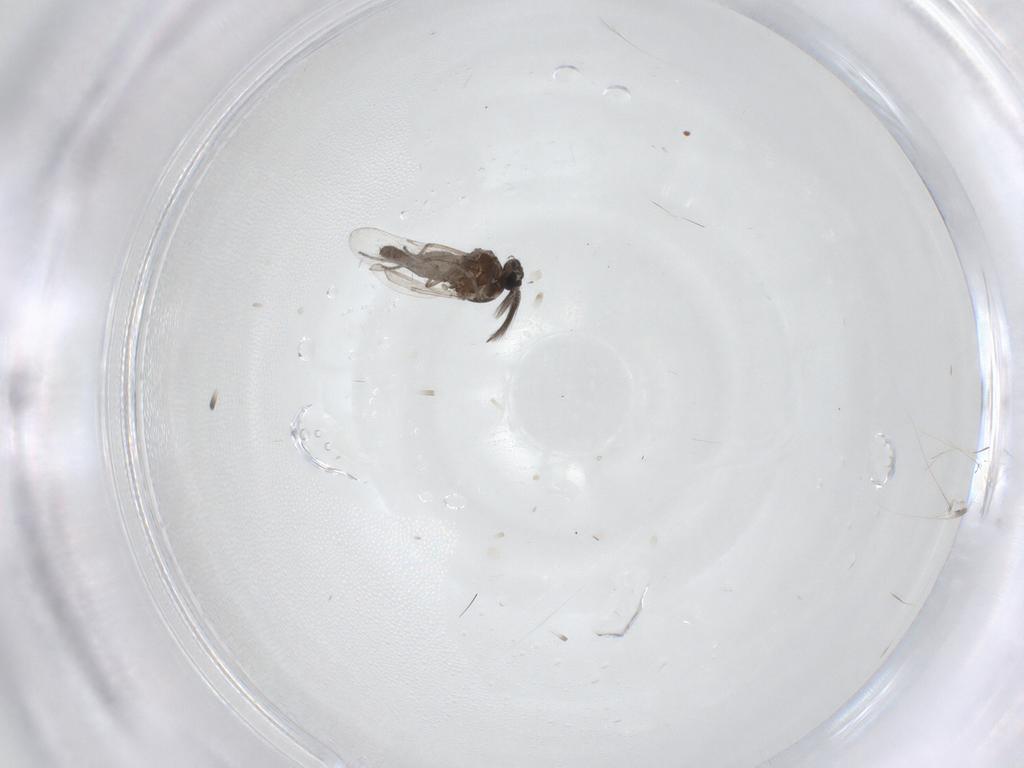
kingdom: Animalia
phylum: Arthropoda
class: Insecta
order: Diptera
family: Ceratopogonidae
